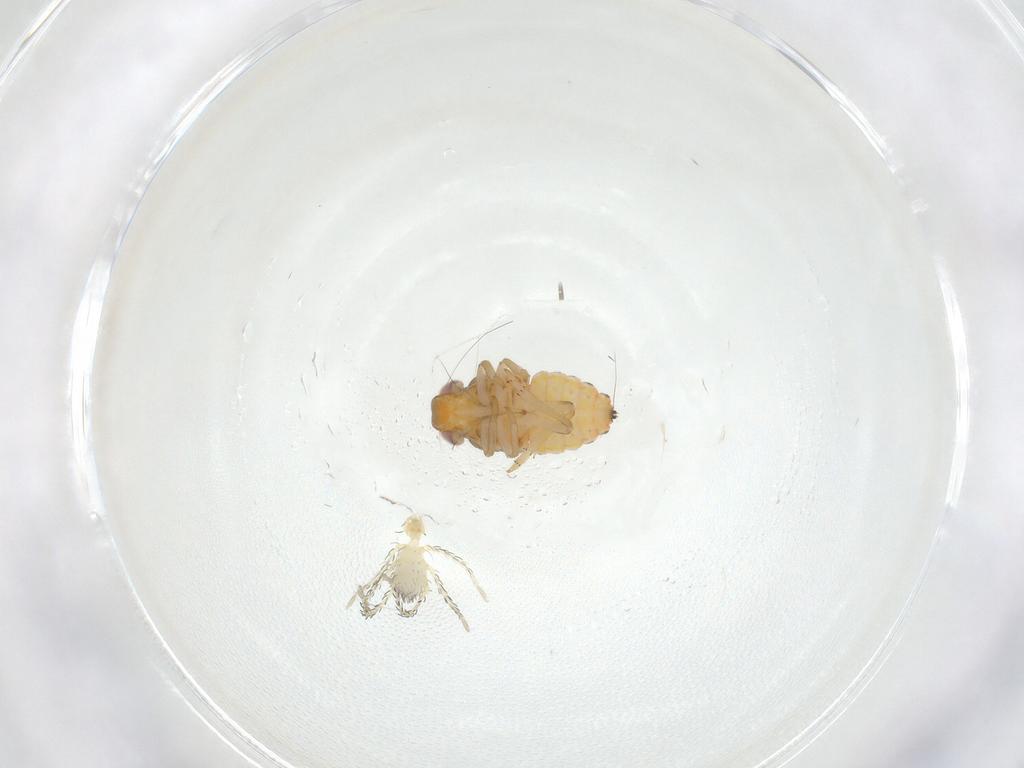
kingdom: Animalia
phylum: Arthropoda
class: Insecta
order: Hemiptera
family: Issidae
